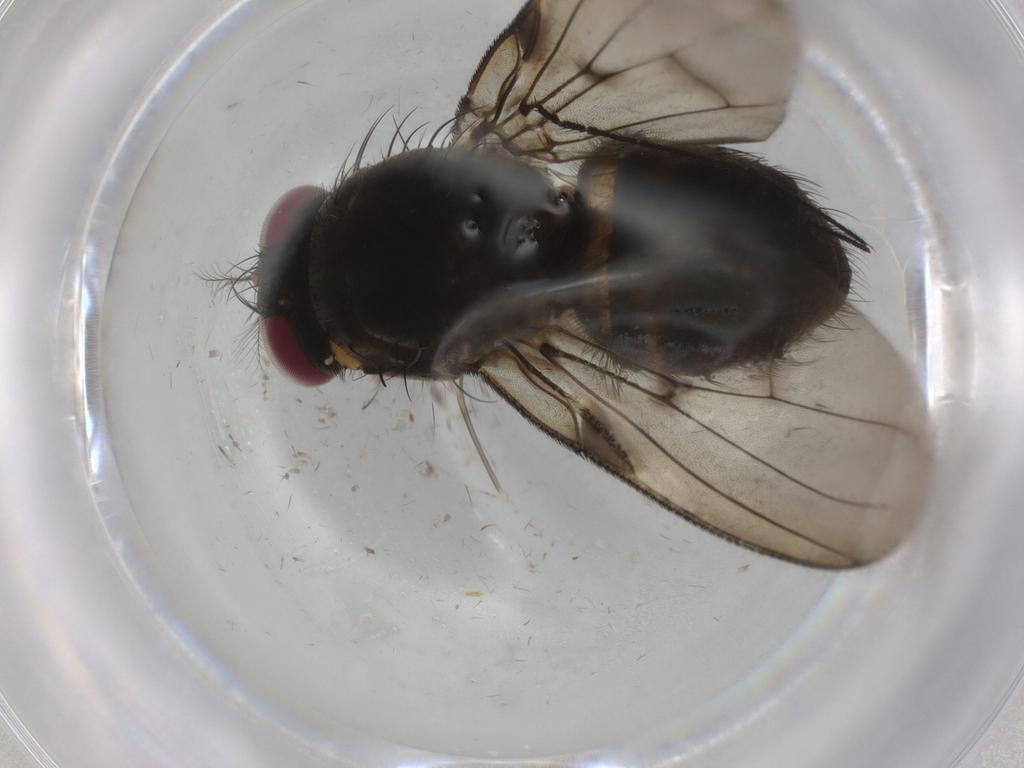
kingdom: Animalia
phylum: Arthropoda
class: Insecta
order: Diptera
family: Muscidae
